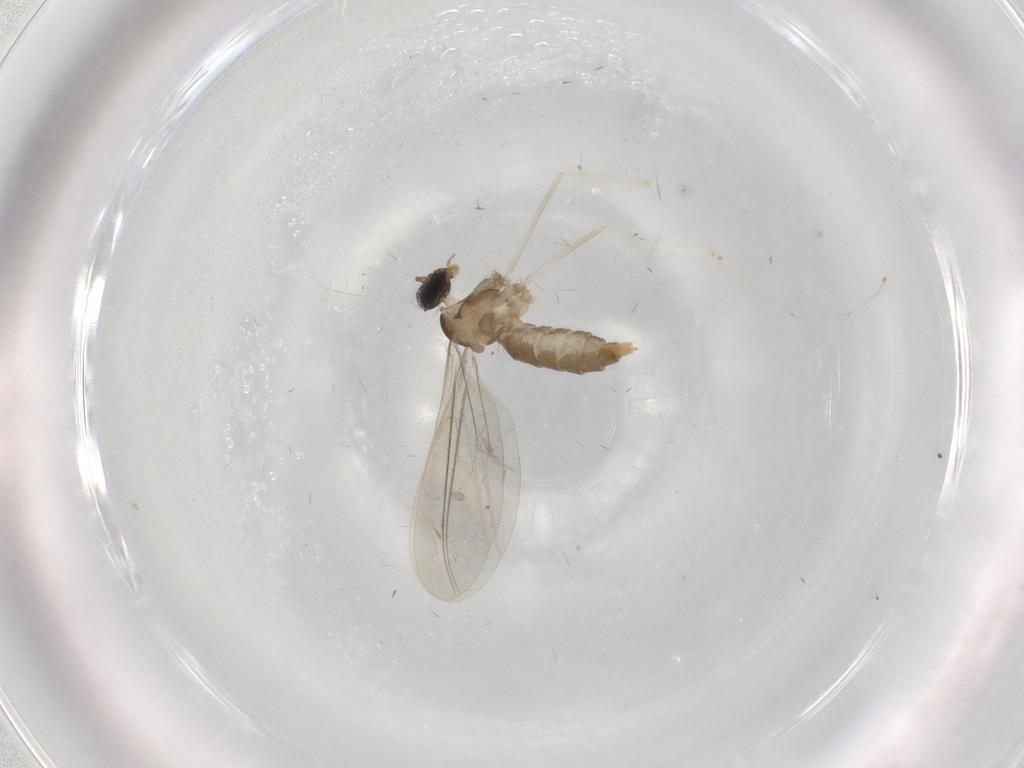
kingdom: Animalia
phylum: Arthropoda
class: Insecta
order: Diptera
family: Cecidomyiidae
